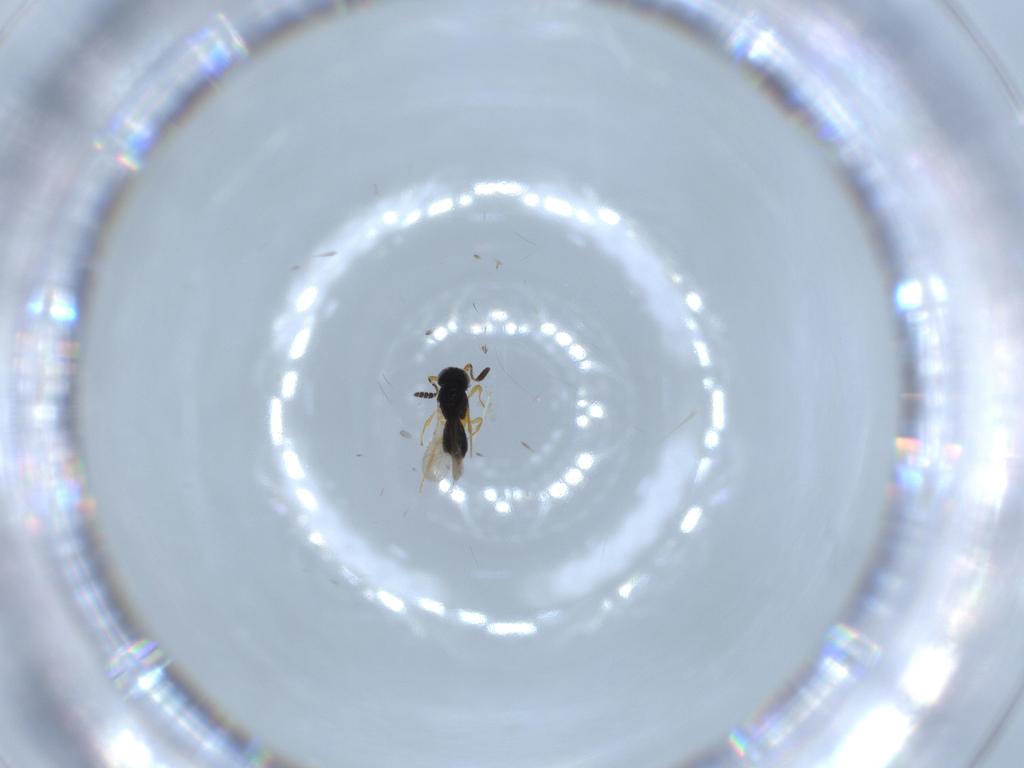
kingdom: Animalia
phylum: Arthropoda
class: Insecta
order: Hymenoptera
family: Scelionidae
